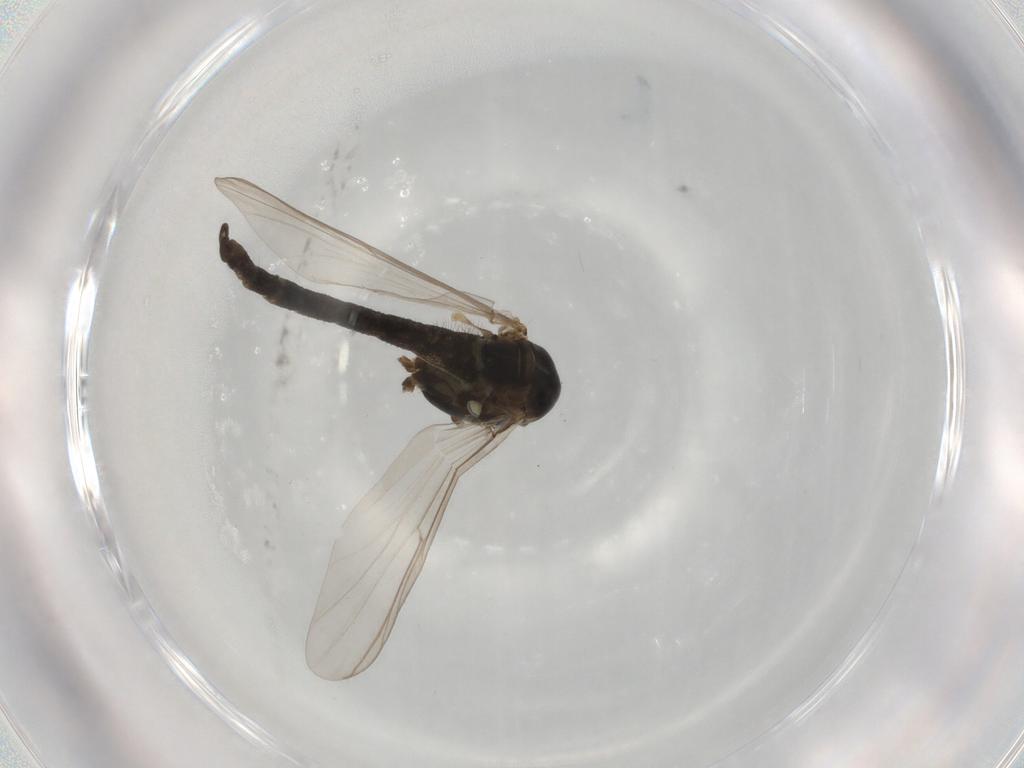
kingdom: Animalia
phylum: Arthropoda
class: Insecta
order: Diptera
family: Chironomidae
